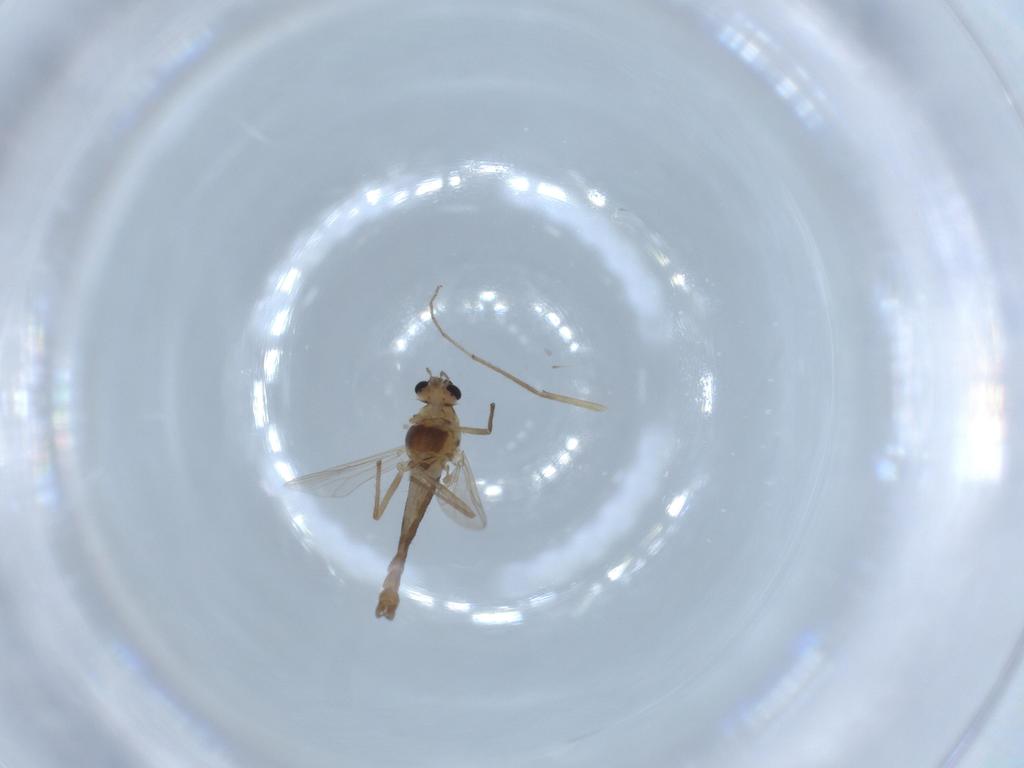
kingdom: Animalia
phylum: Arthropoda
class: Insecta
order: Diptera
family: Chironomidae
